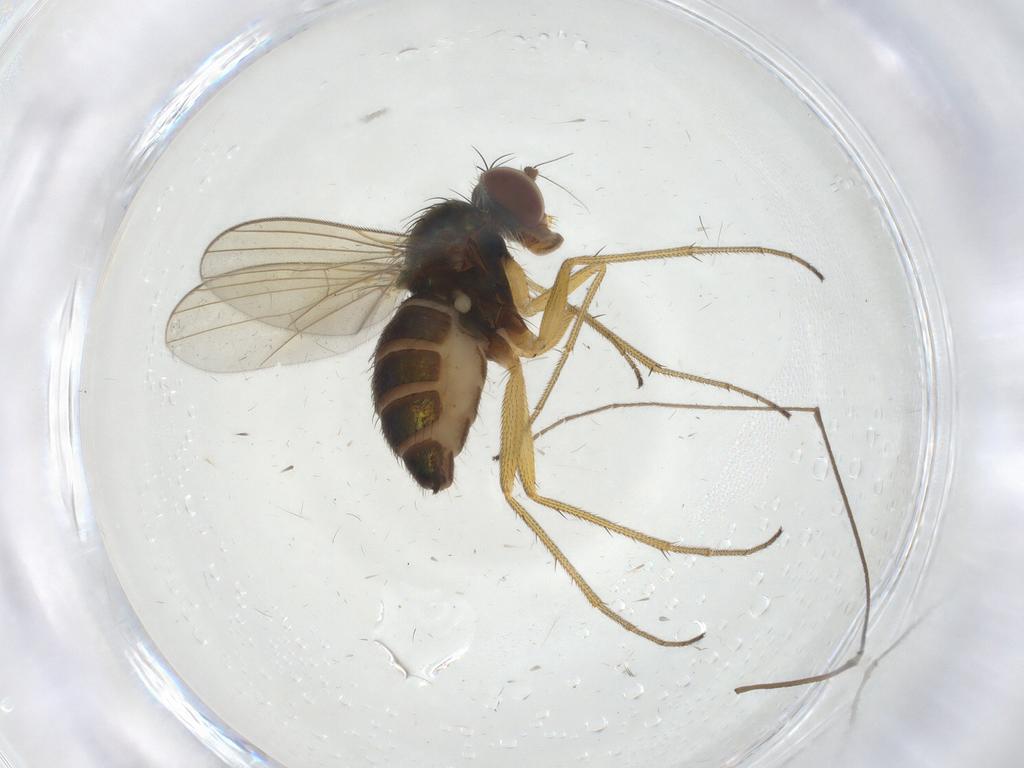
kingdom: Animalia
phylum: Arthropoda
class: Insecta
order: Diptera
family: Dolichopodidae
